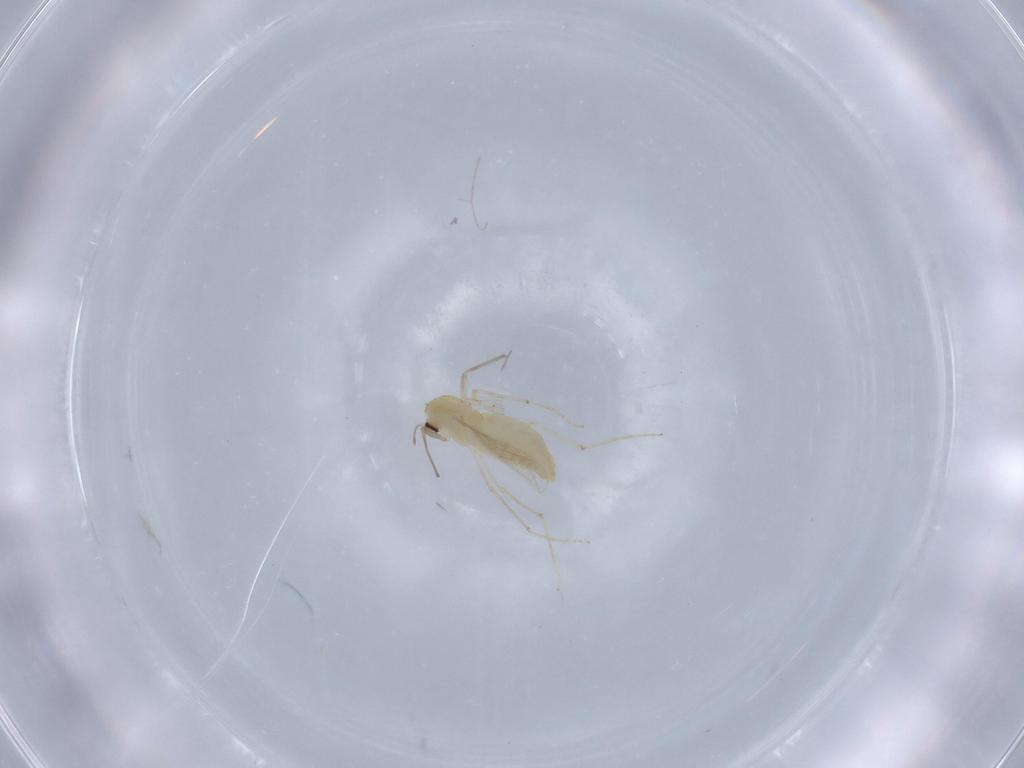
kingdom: Animalia
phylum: Arthropoda
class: Insecta
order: Diptera
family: Chironomidae
